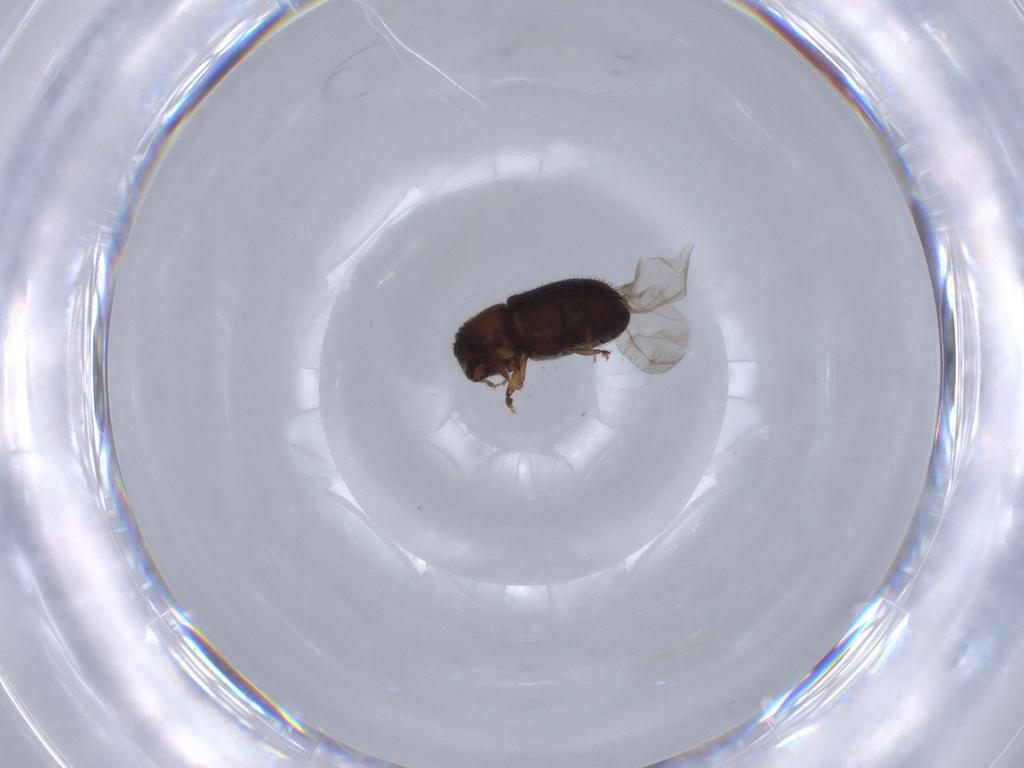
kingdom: Animalia
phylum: Arthropoda
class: Insecta
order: Coleoptera
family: Curculionidae
